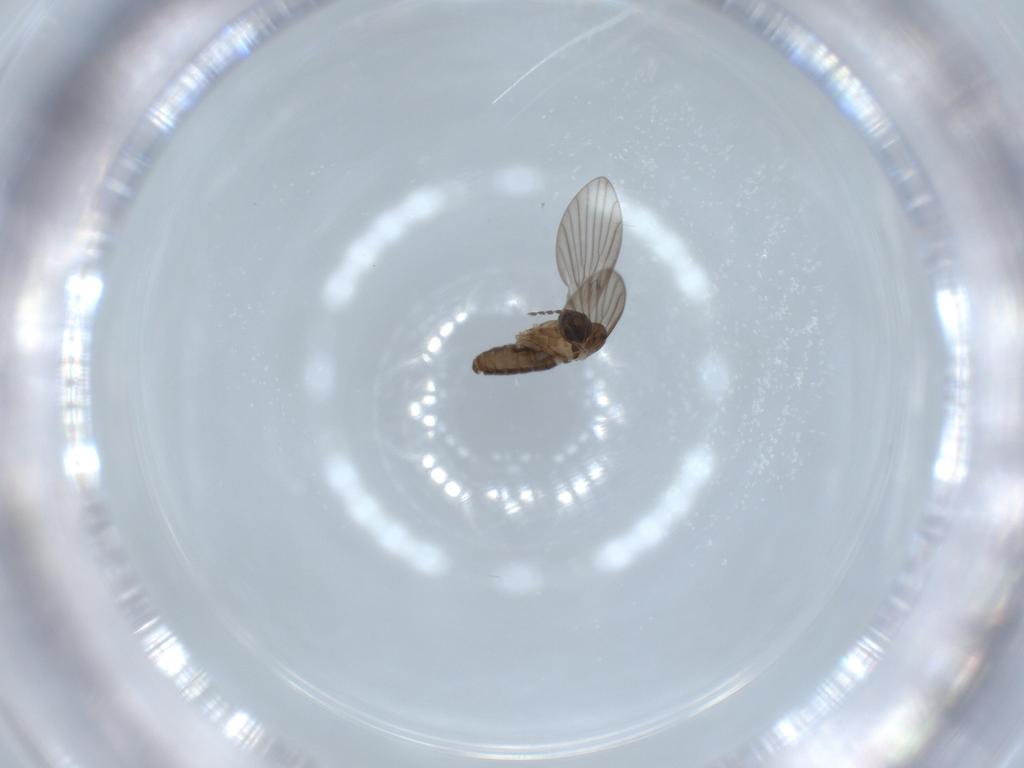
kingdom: Animalia
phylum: Arthropoda
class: Insecta
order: Diptera
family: Psychodidae
